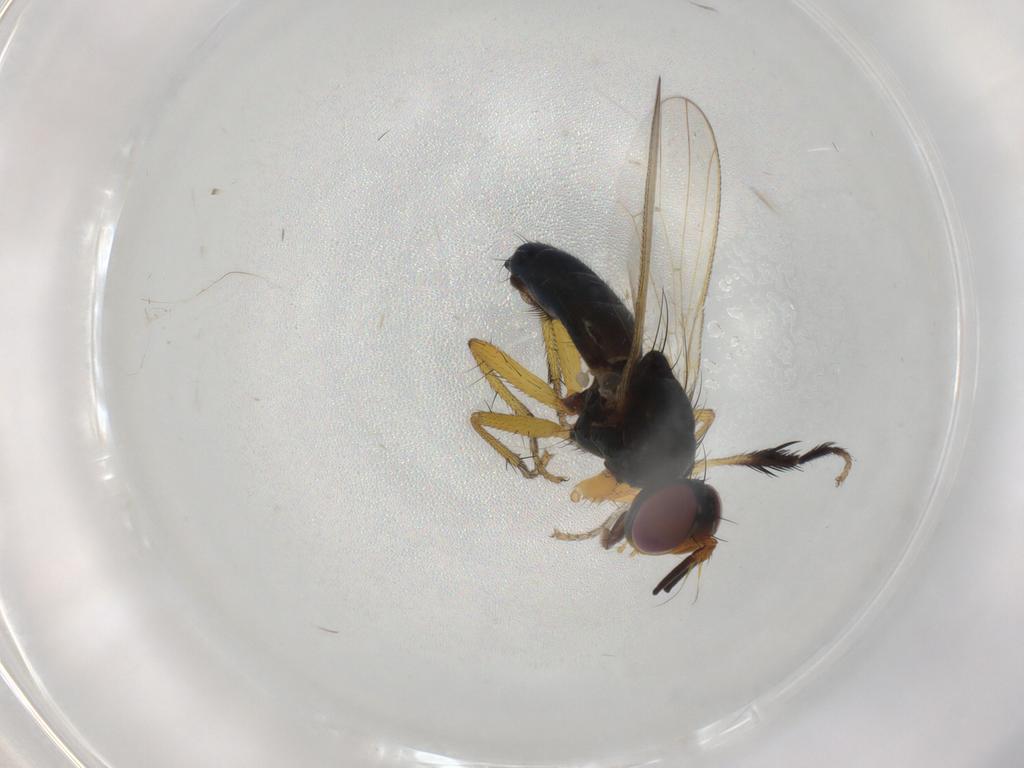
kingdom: Animalia
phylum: Arthropoda
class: Insecta
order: Diptera
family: Muscidae
